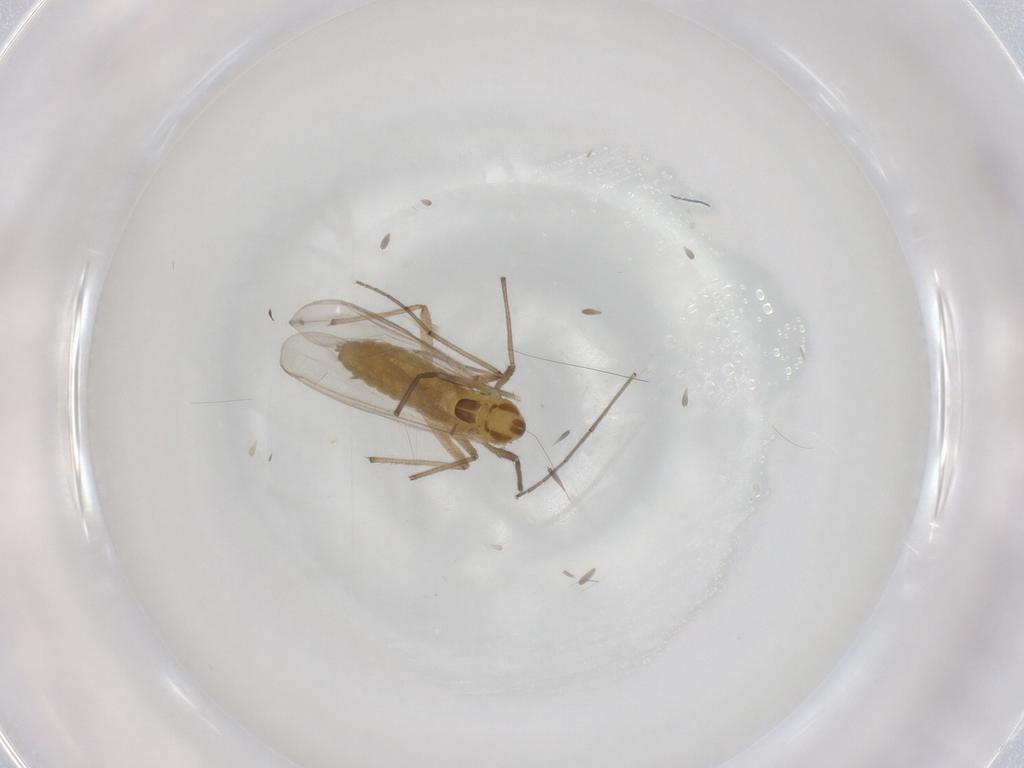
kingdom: Animalia
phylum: Arthropoda
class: Insecta
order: Diptera
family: Chironomidae
